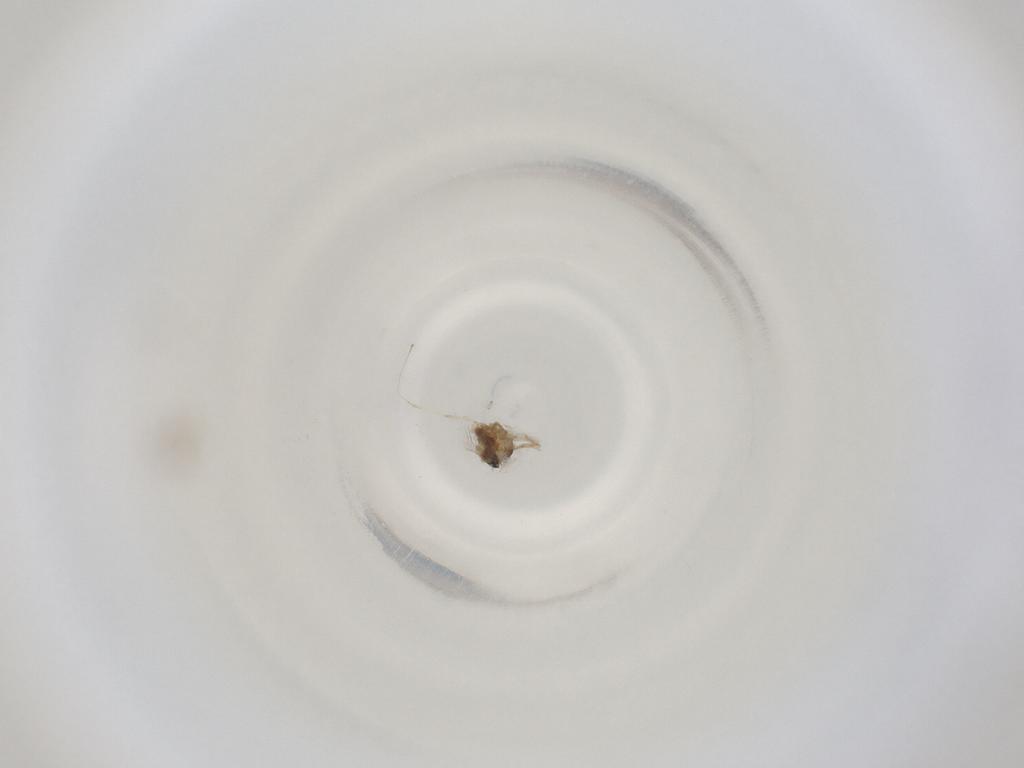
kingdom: Animalia
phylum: Arthropoda
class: Insecta
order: Diptera
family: Cecidomyiidae
